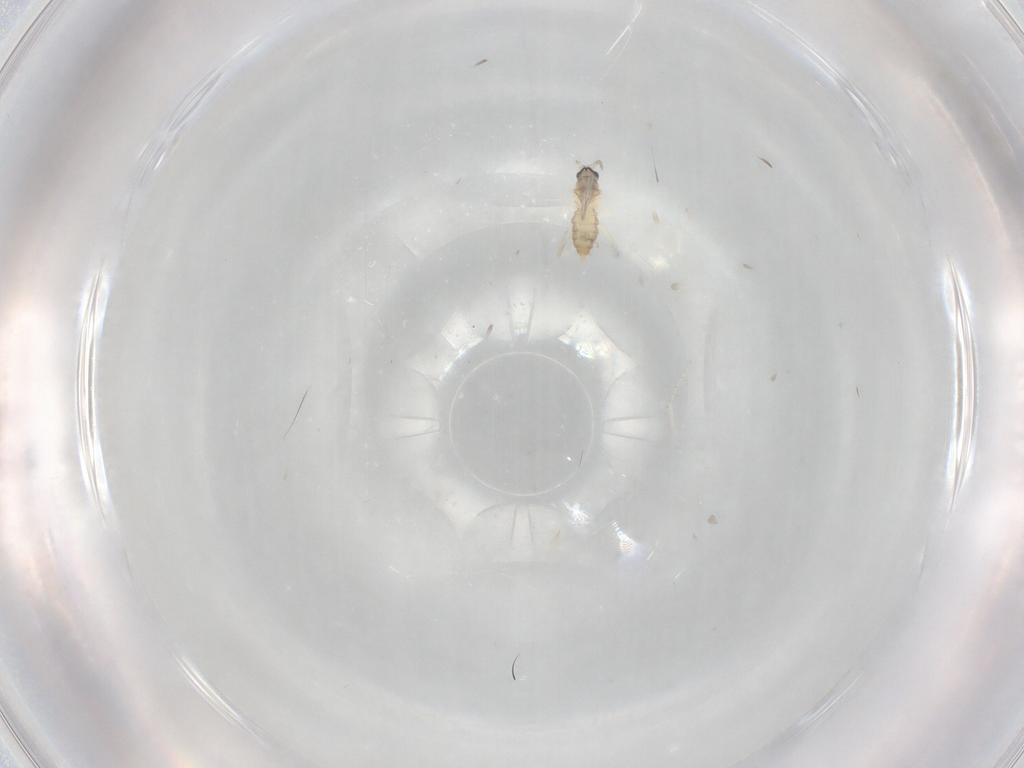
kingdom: Animalia
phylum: Arthropoda
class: Insecta
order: Diptera
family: Cecidomyiidae
